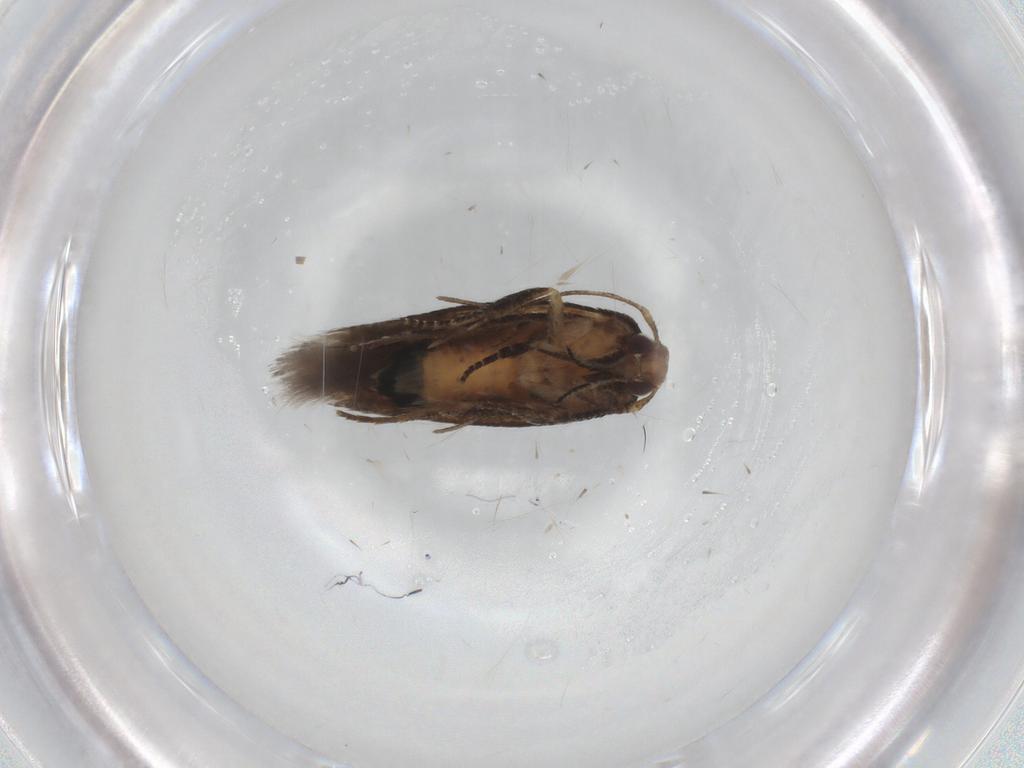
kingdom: Animalia
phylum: Arthropoda
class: Insecta
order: Lepidoptera
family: Cosmopterigidae
